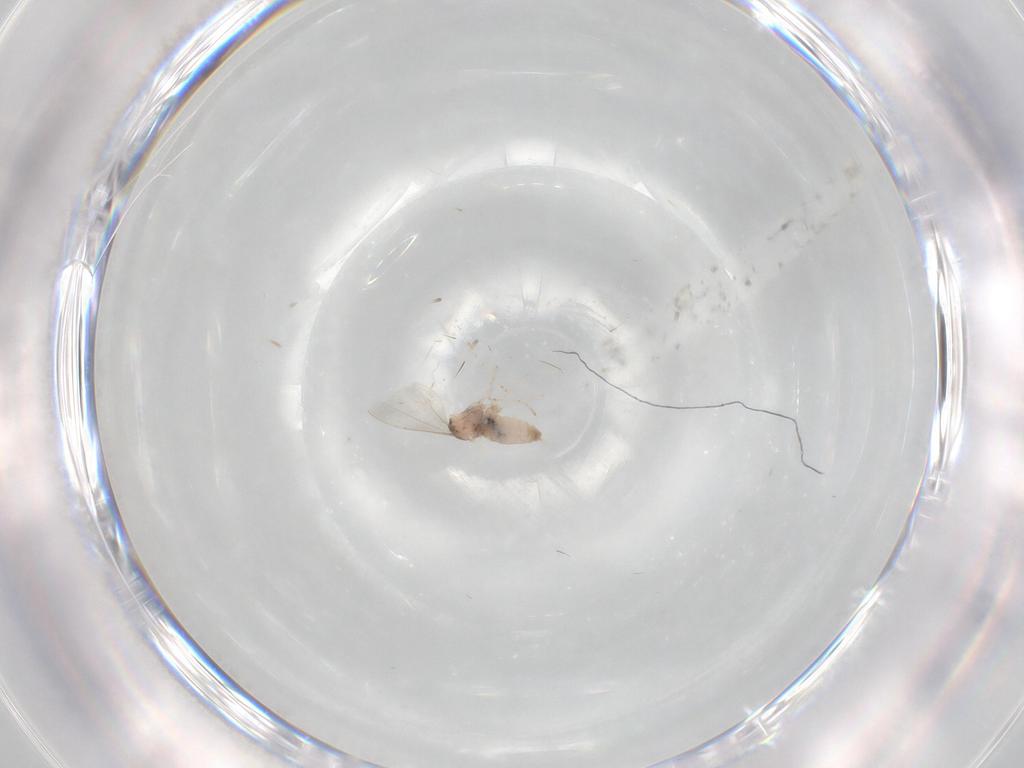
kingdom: Animalia
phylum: Arthropoda
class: Insecta
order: Diptera
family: Cecidomyiidae
